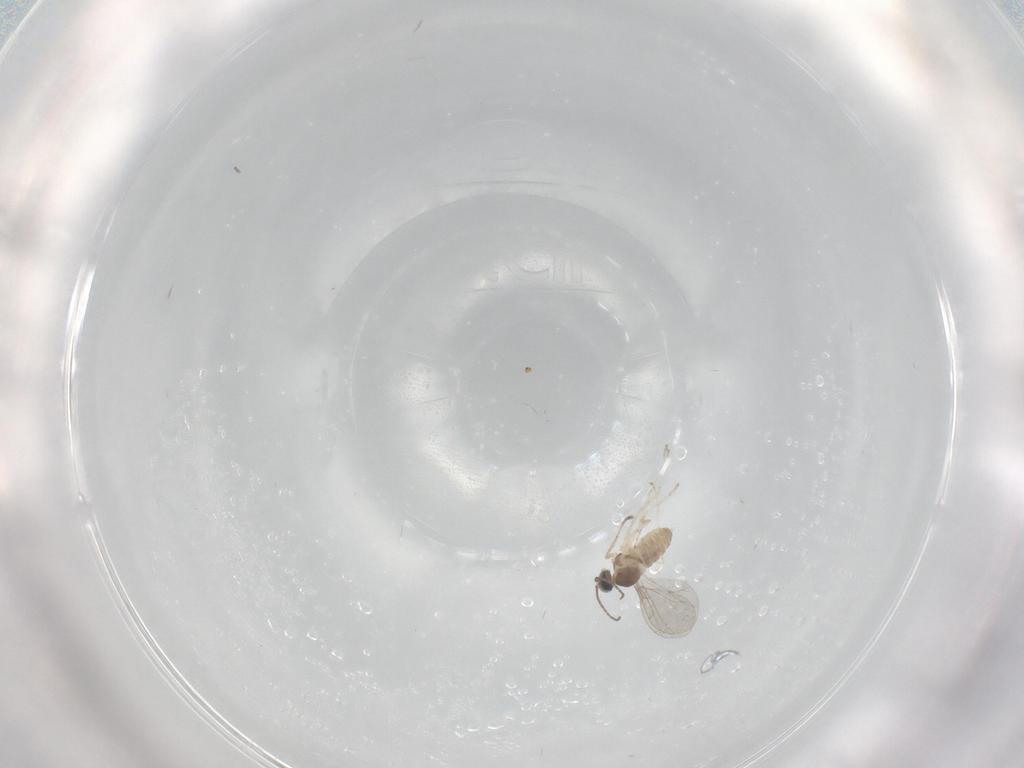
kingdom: Animalia
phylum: Arthropoda
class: Insecta
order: Diptera
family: Cecidomyiidae
